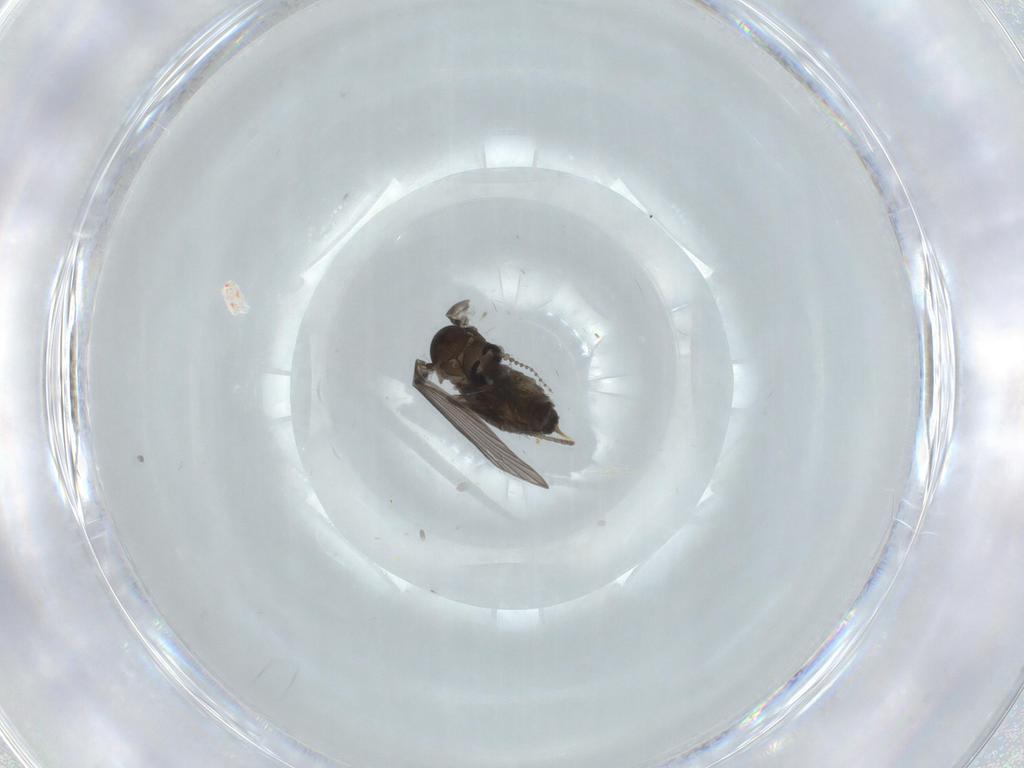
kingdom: Animalia
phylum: Arthropoda
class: Insecta
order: Diptera
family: Psychodidae
